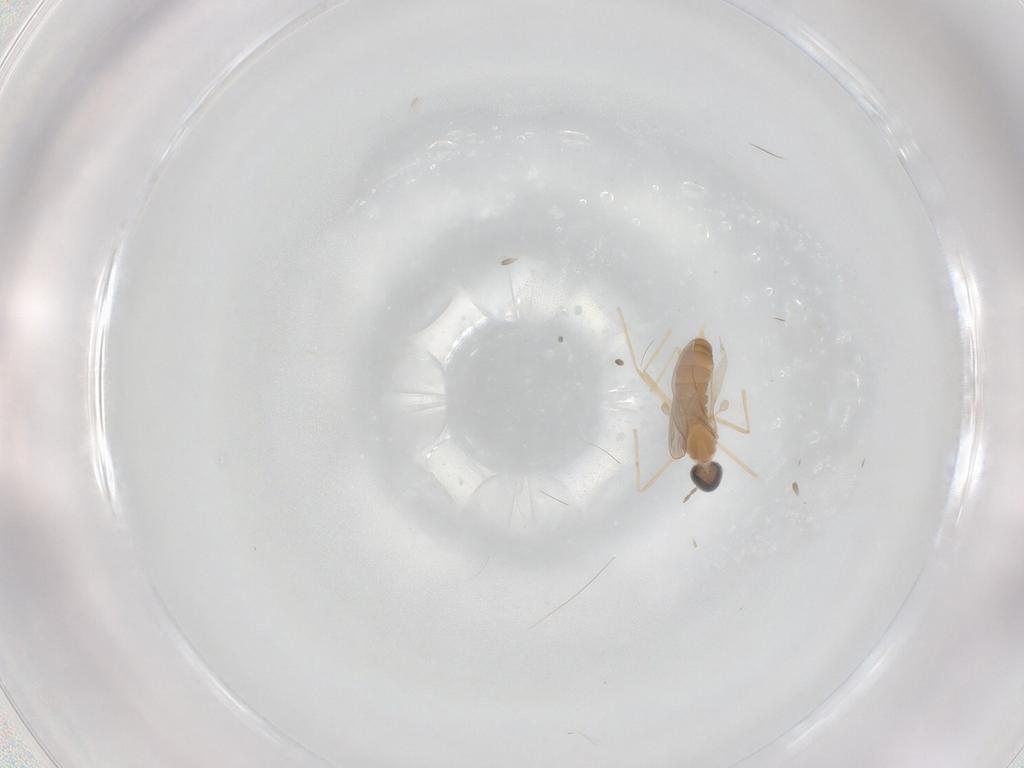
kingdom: Animalia
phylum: Arthropoda
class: Insecta
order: Diptera
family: Cecidomyiidae
